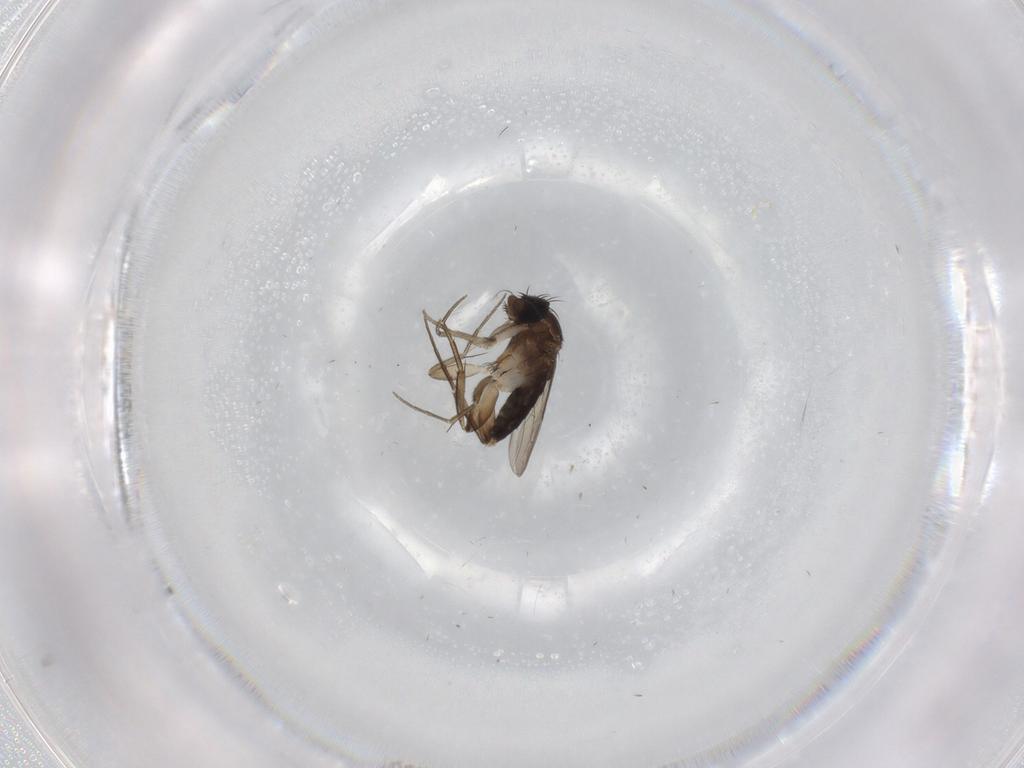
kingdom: Animalia
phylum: Arthropoda
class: Insecta
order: Diptera
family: Phoridae
